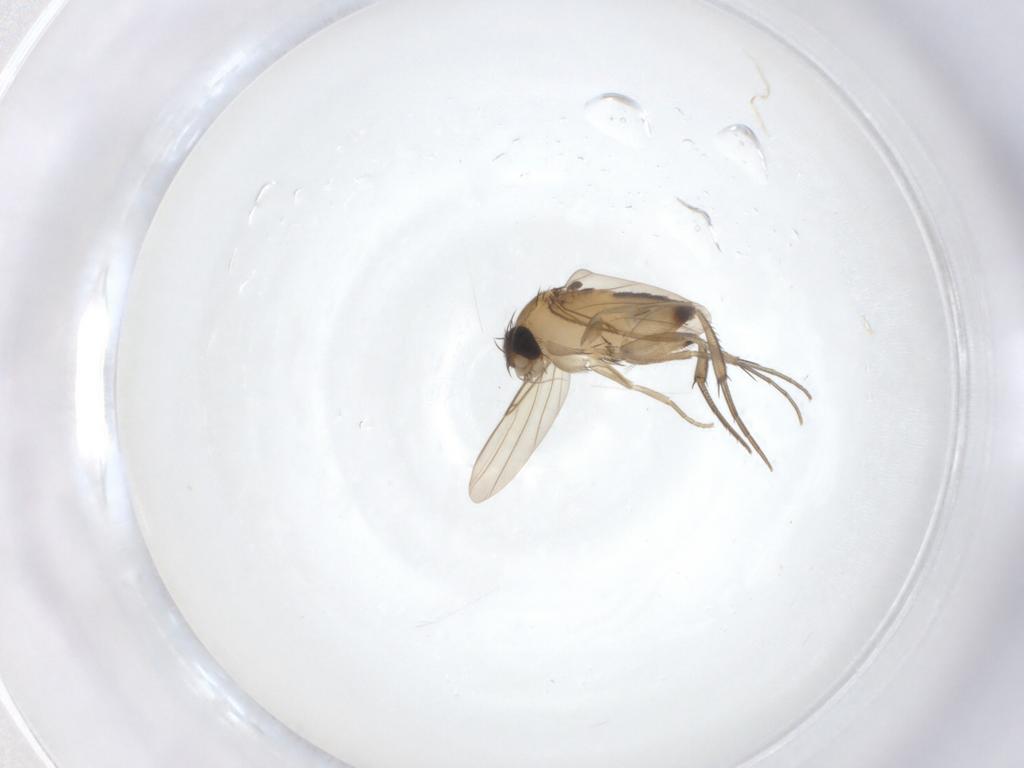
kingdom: Animalia
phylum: Arthropoda
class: Insecta
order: Diptera
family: Phoridae
